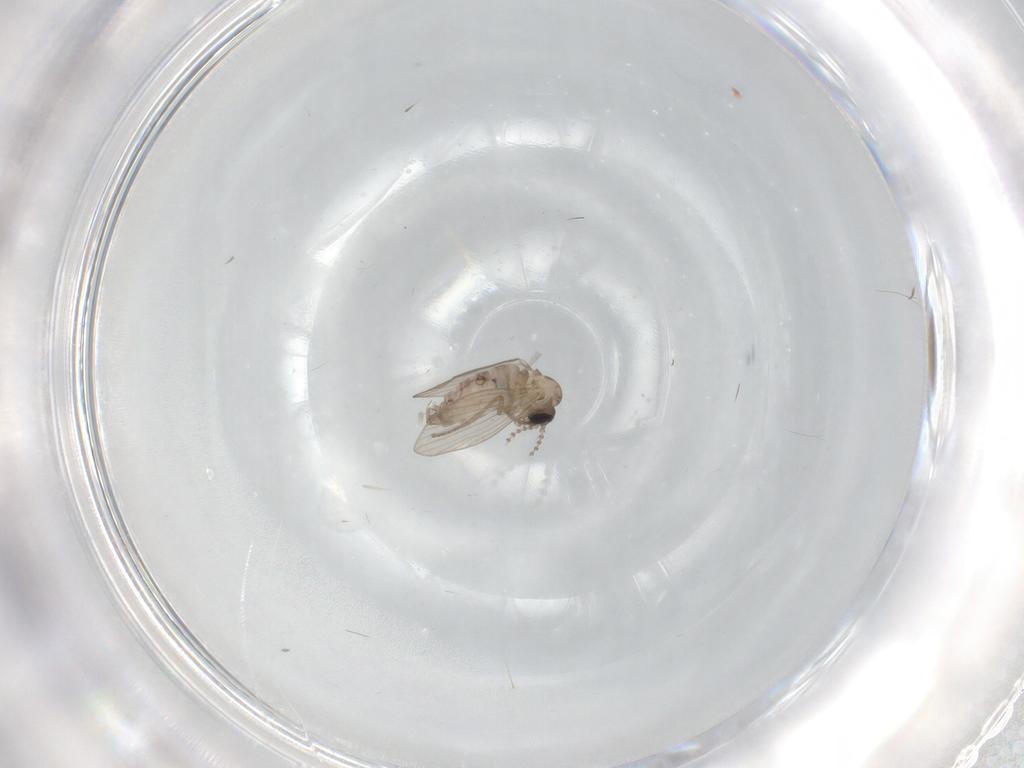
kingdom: Animalia
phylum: Arthropoda
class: Insecta
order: Diptera
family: Psychodidae
